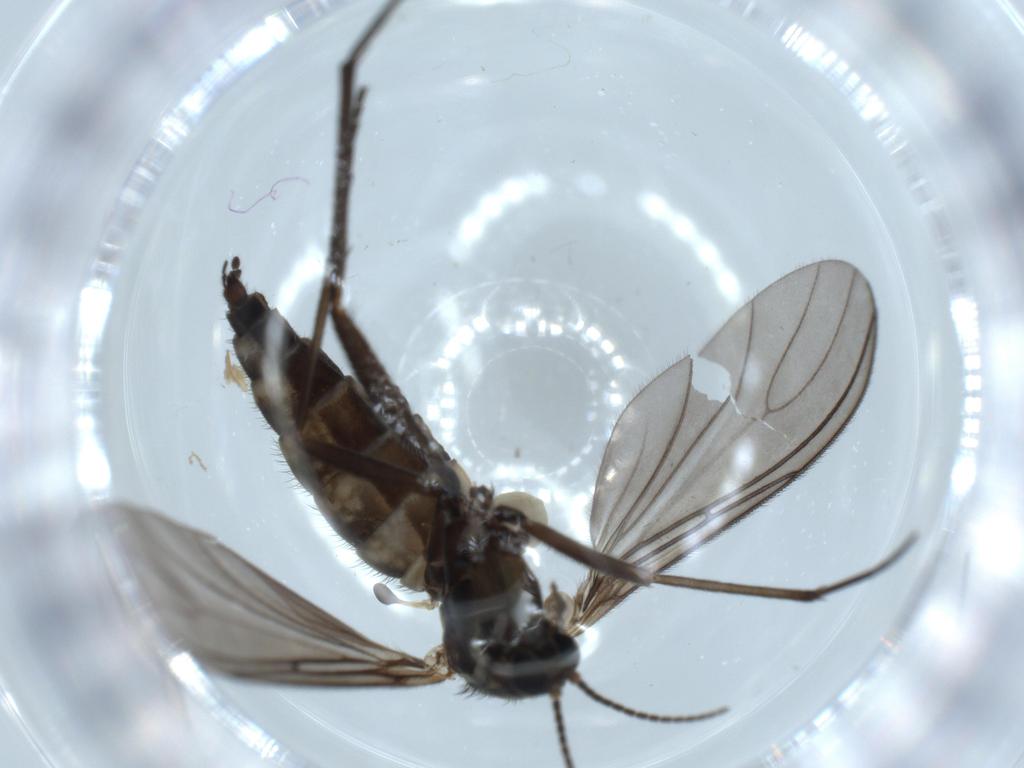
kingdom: Animalia
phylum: Arthropoda
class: Insecta
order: Diptera
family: Sciaridae
